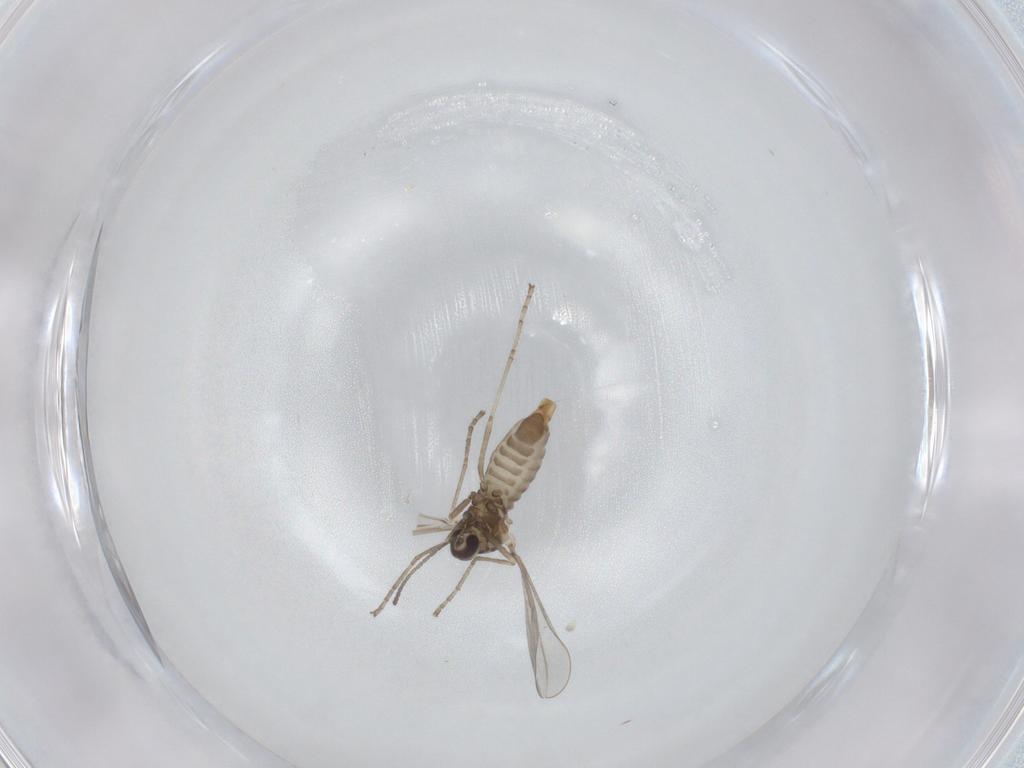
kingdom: Animalia
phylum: Arthropoda
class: Insecta
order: Diptera
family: Cecidomyiidae
